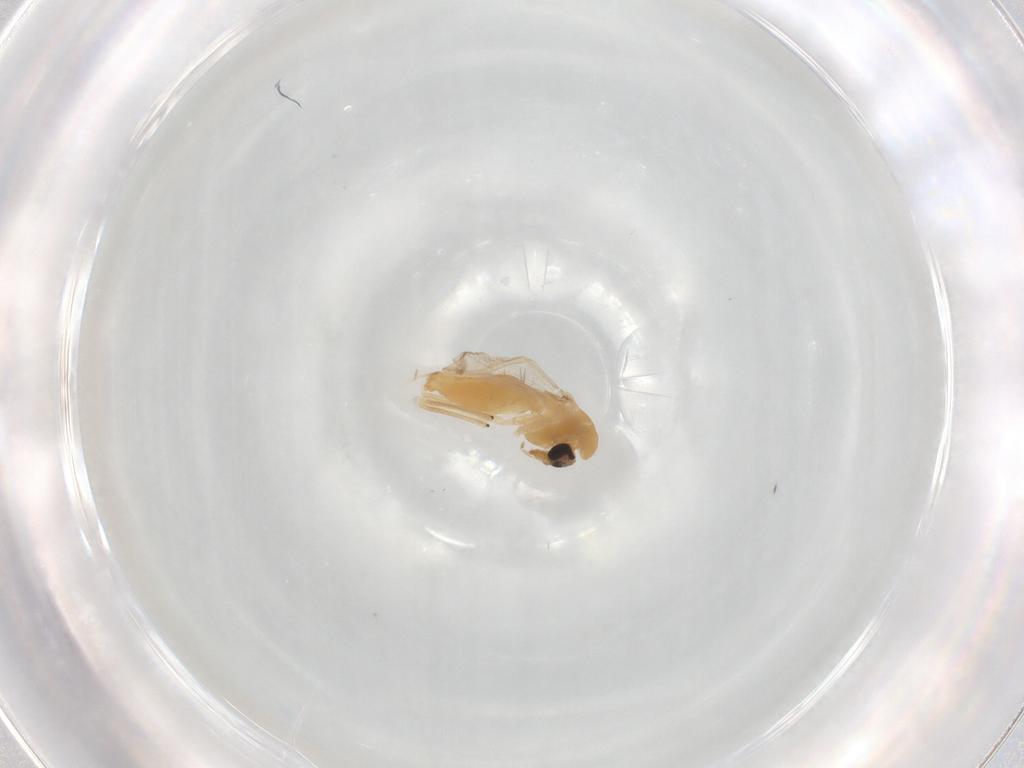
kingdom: Animalia
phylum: Arthropoda
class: Insecta
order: Diptera
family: Chironomidae
